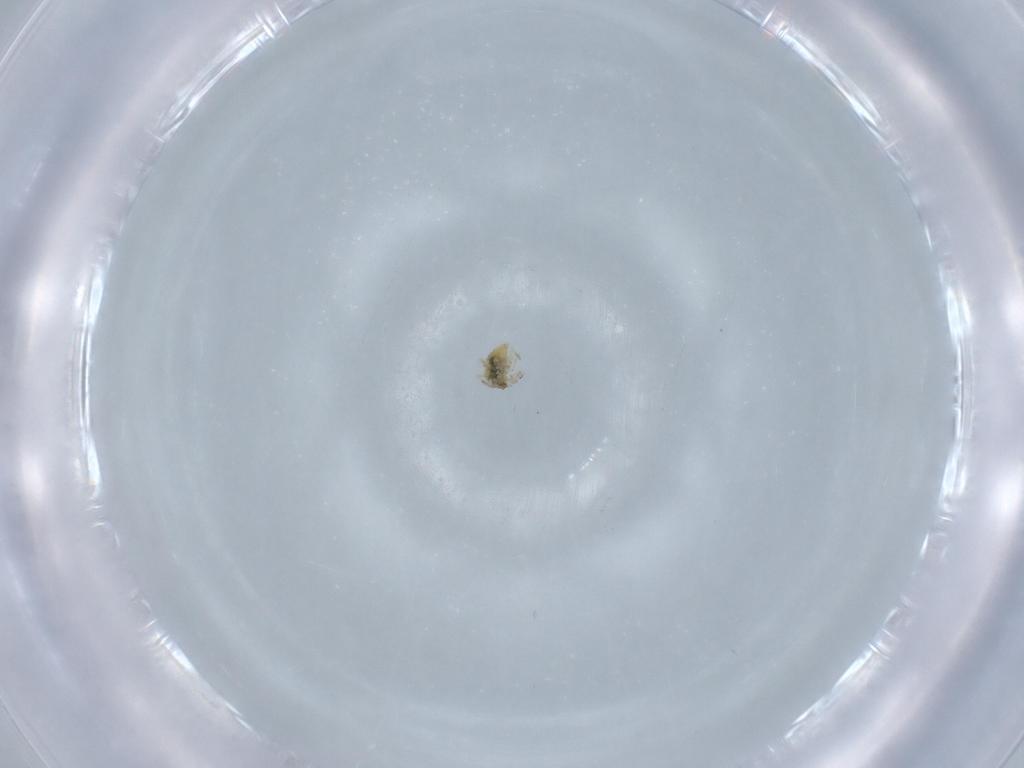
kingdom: Animalia
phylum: Arthropoda
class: Insecta
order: Neuroptera
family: Coniopterygidae
